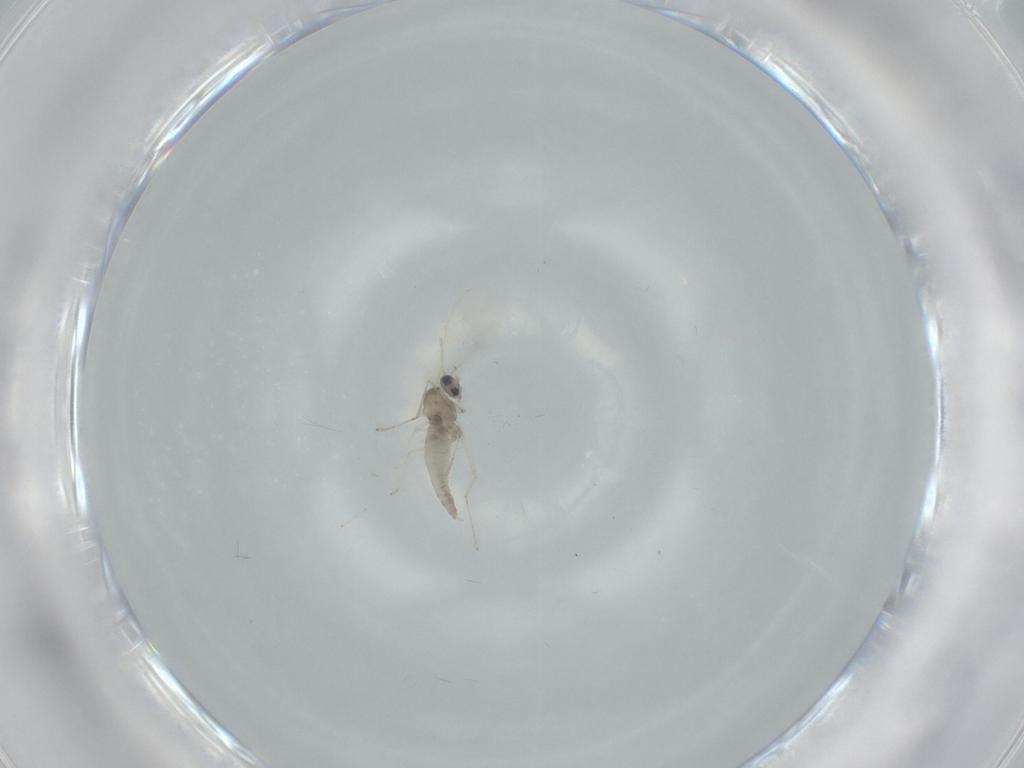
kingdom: Animalia
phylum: Arthropoda
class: Insecta
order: Diptera
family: Cecidomyiidae
